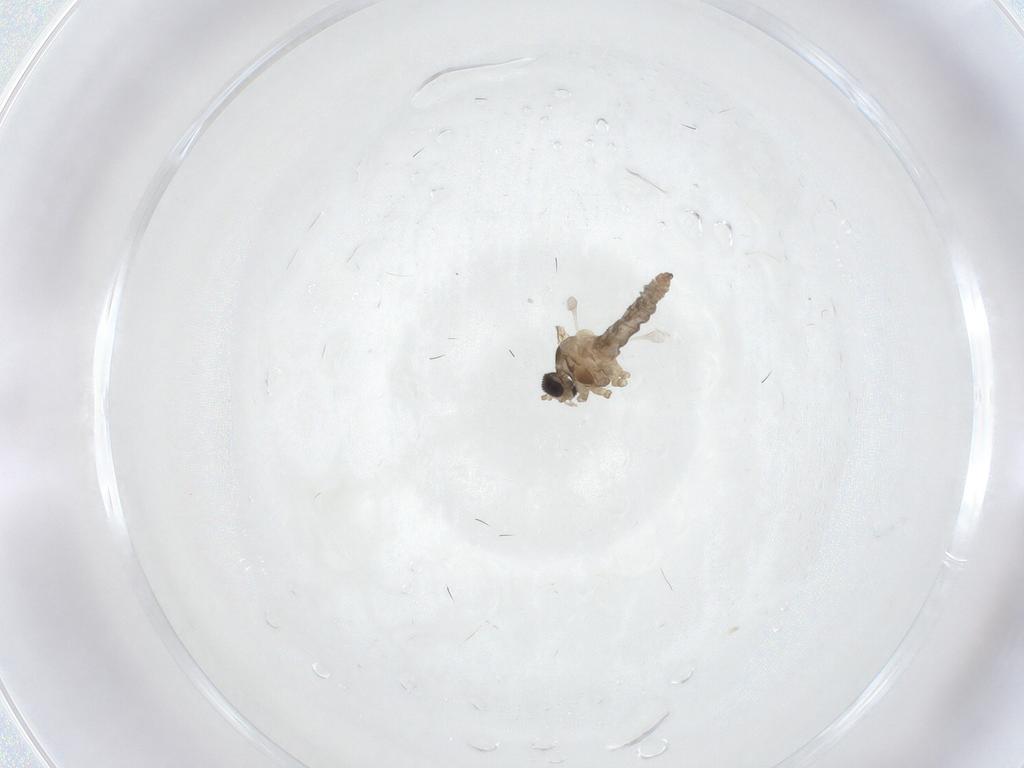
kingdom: Animalia
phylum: Arthropoda
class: Insecta
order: Diptera
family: Cecidomyiidae
